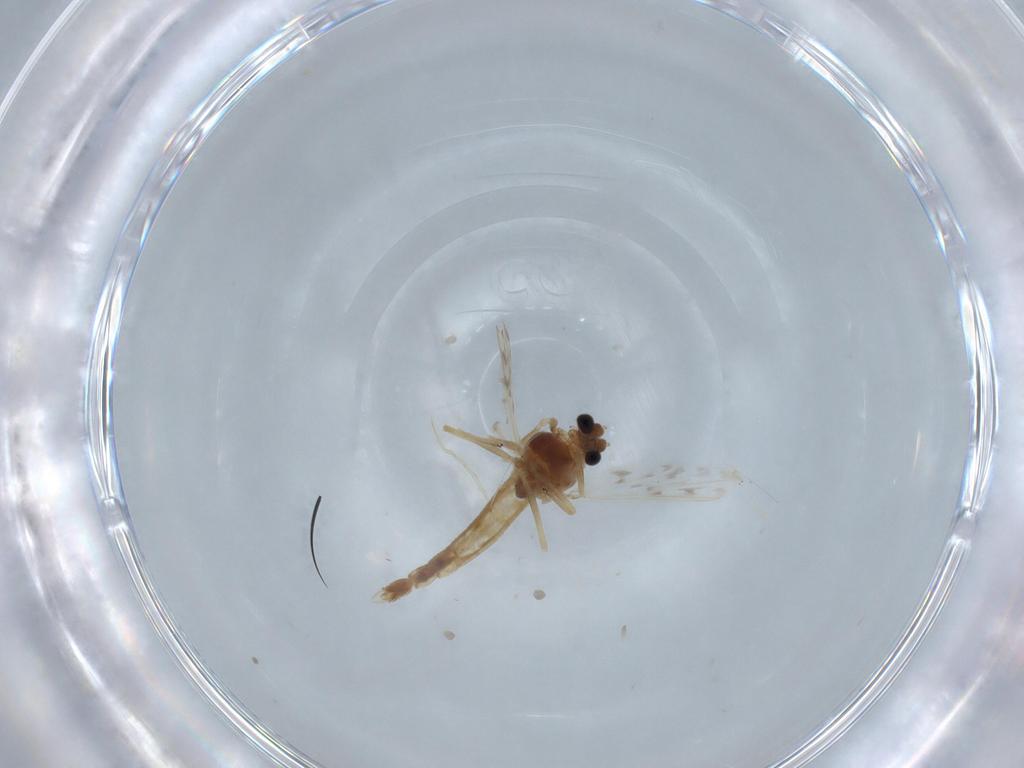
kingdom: Animalia
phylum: Arthropoda
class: Insecta
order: Diptera
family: Chironomidae
